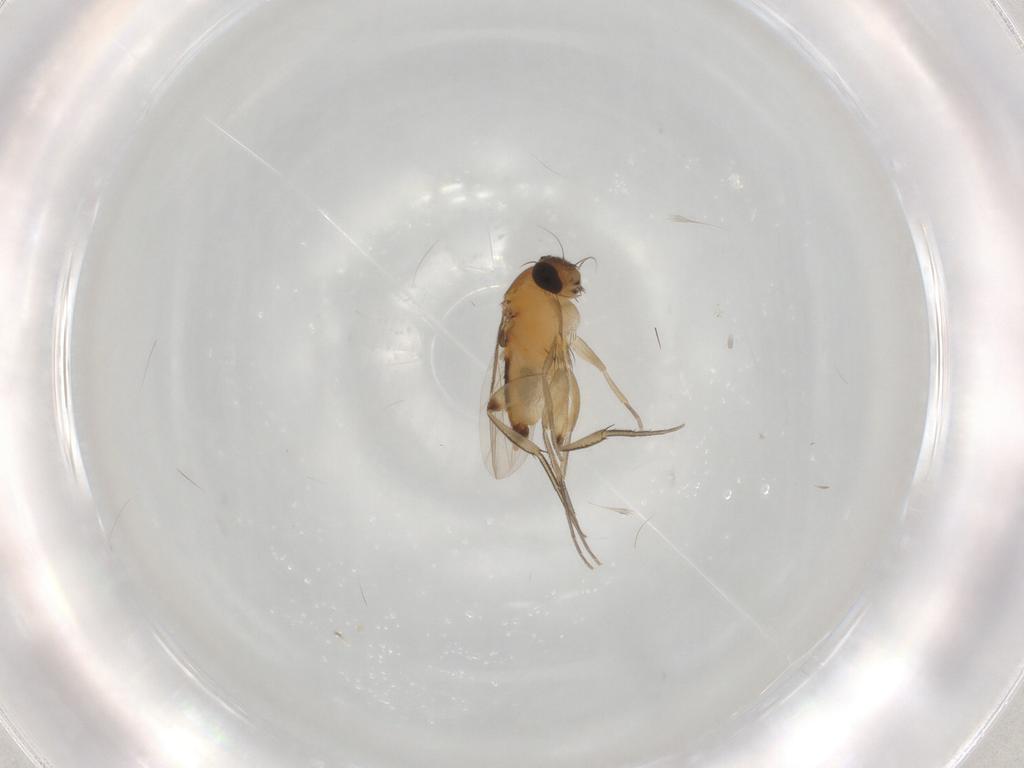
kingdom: Animalia
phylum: Arthropoda
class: Insecta
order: Diptera
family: Phoridae
